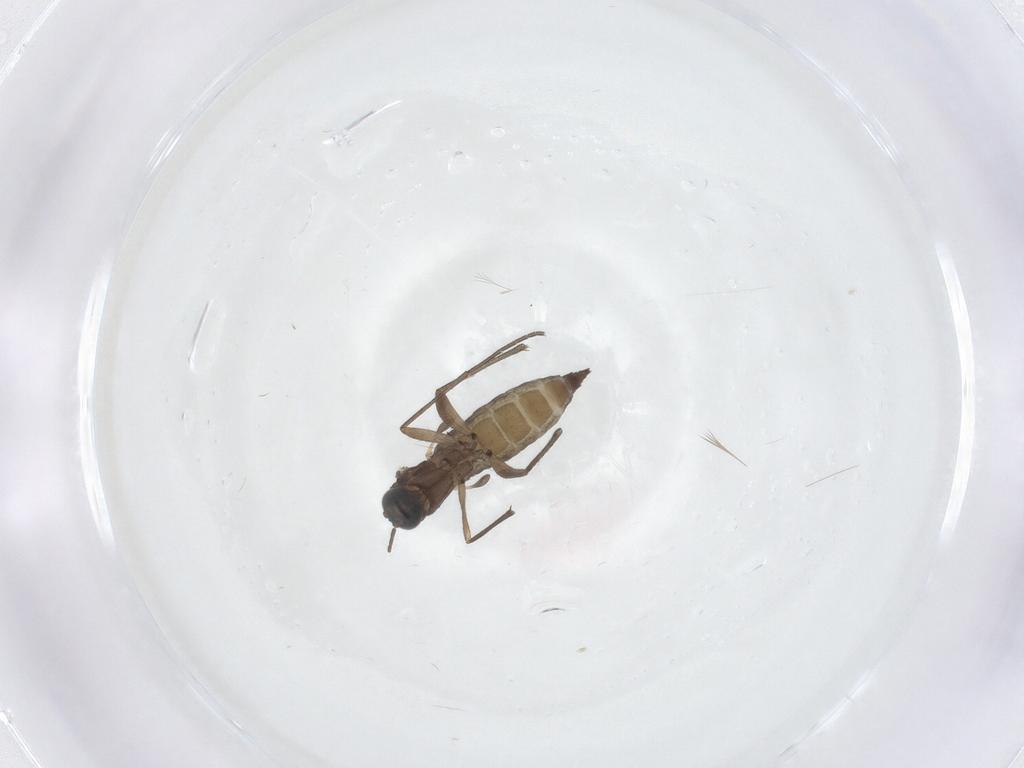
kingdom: Animalia
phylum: Arthropoda
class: Insecta
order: Diptera
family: Sciaridae
